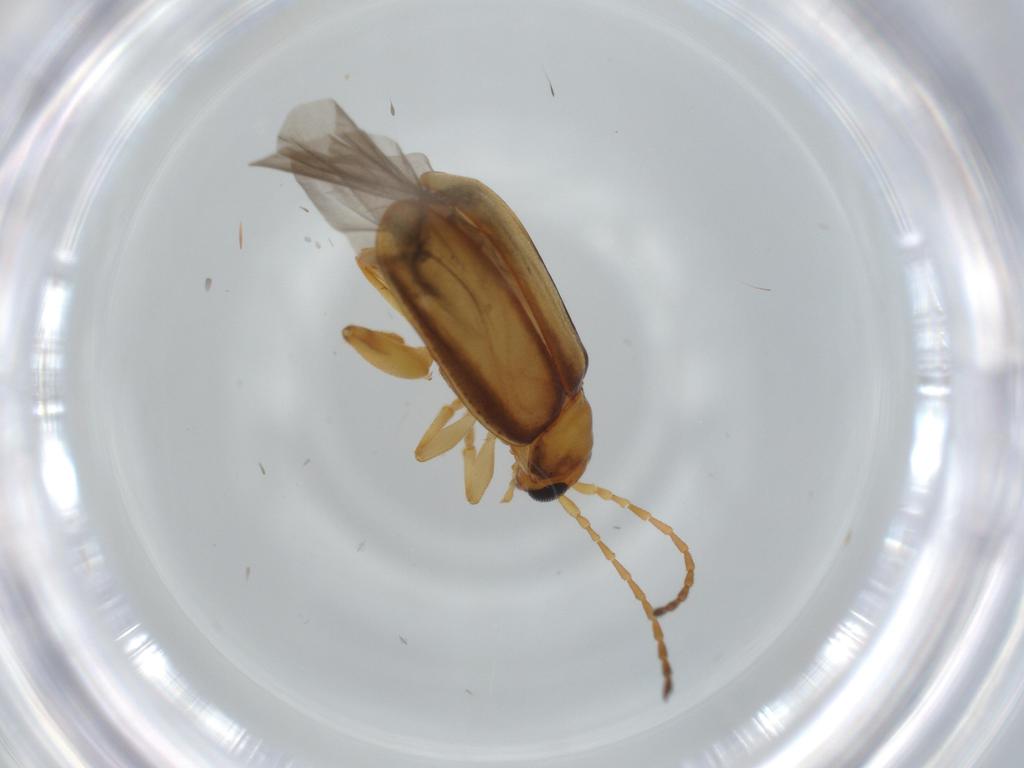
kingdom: Animalia
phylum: Arthropoda
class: Insecta
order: Coleoptera
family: Chrysomelidae
